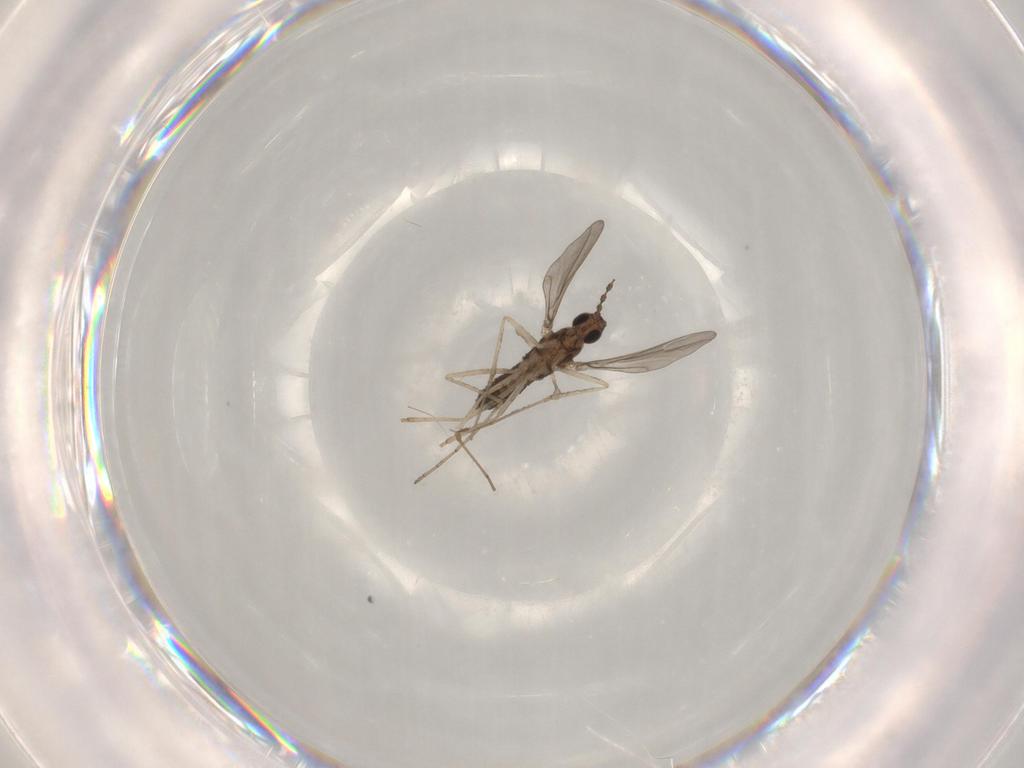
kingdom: Animalia
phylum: Arthropoda
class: Insecta
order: Diptera
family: Cecidomyiidae
